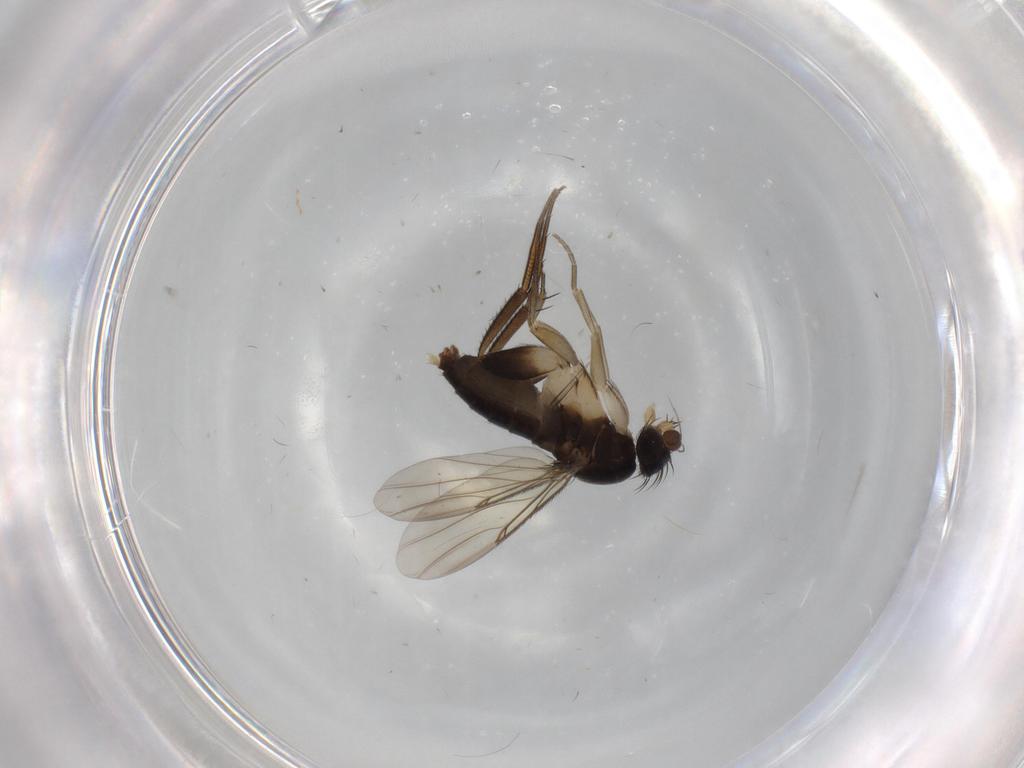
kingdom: Animalia
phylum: Arthropoda
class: Insecta
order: Diptera
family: Phoridae
